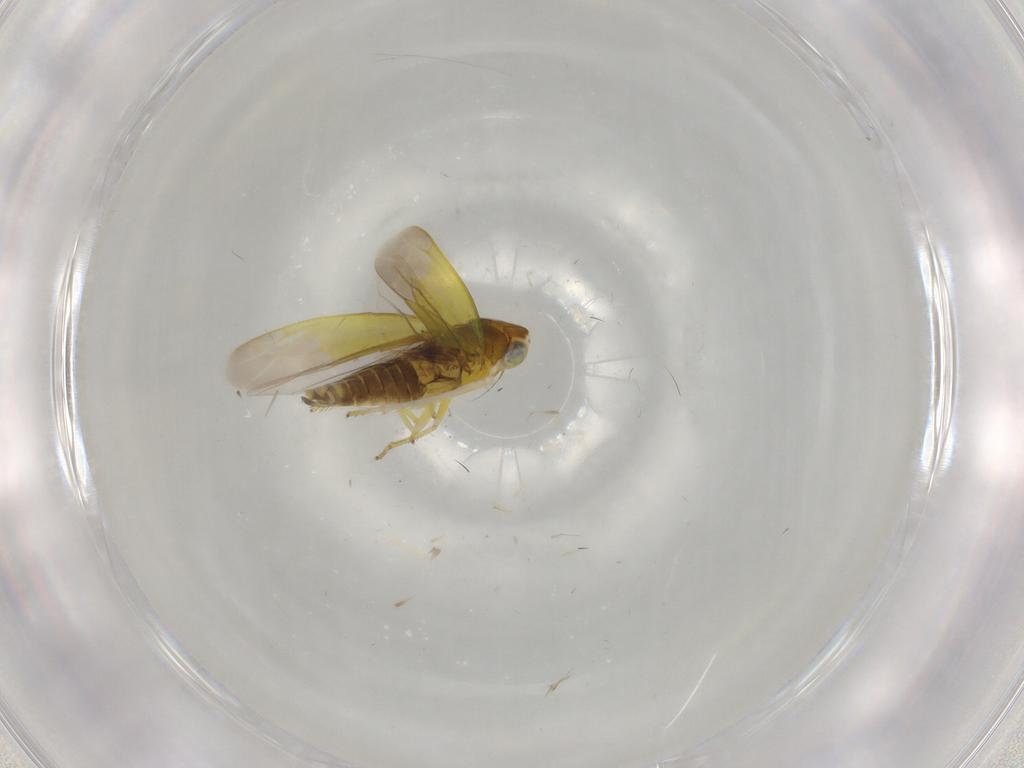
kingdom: Animalia
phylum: Arthropoda
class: Insecta
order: Hemiptera
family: Cicadellidae
